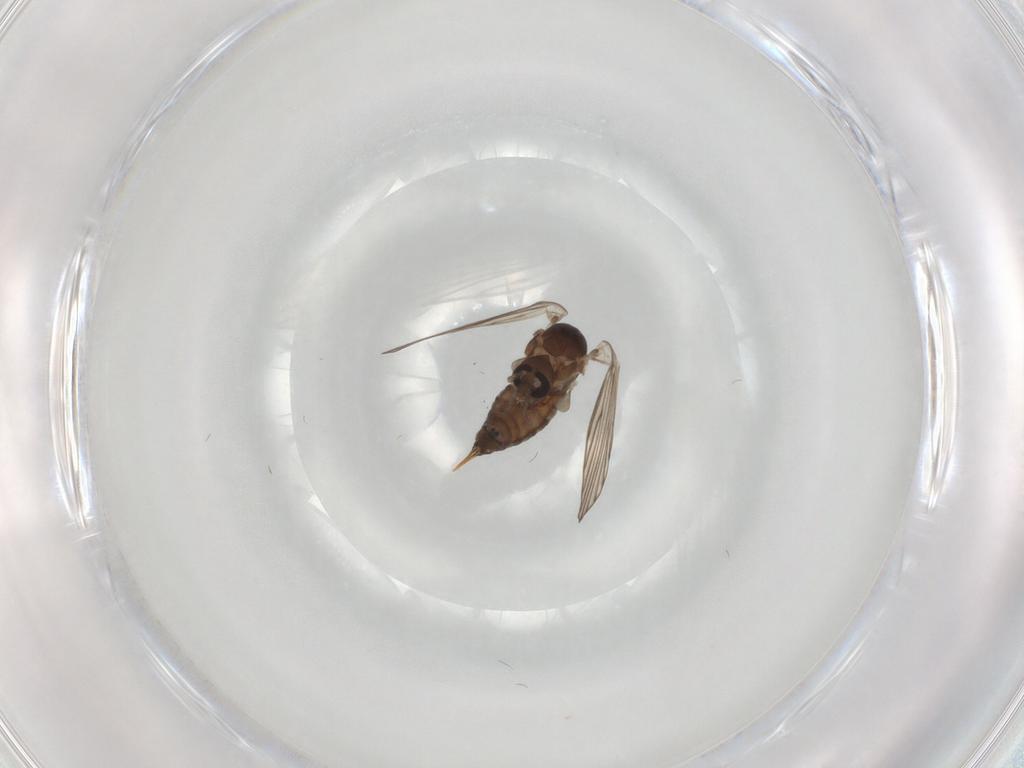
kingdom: Animalia
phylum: Arthropoda
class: Insecta
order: Diptera
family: Psychodidae
